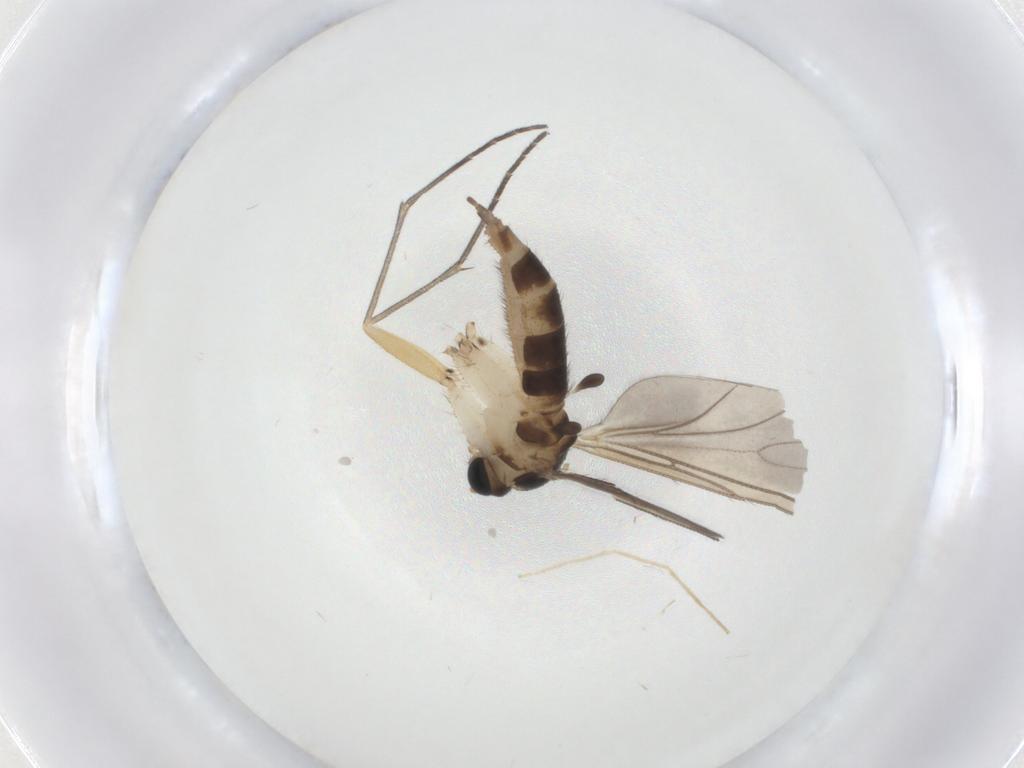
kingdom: Animalia
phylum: Arthropoda
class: Insecta
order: Diptera
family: Sciaridae
